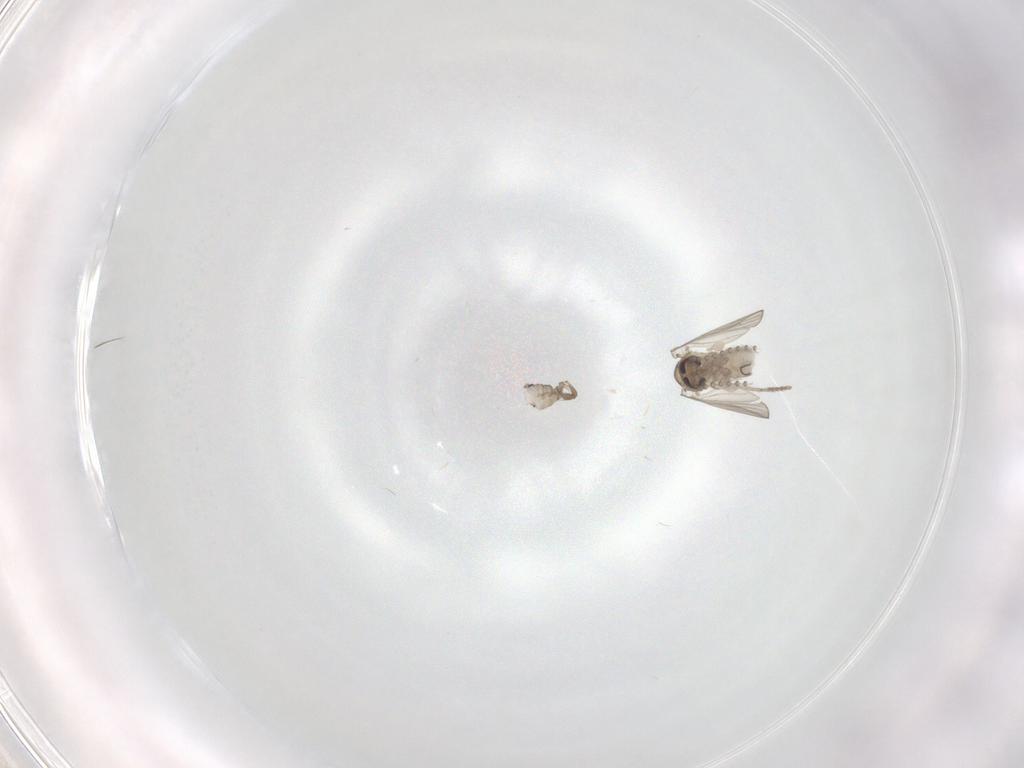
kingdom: Animalia
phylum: Arthropoda
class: Insecta
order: Diptera
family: Psychodidae
